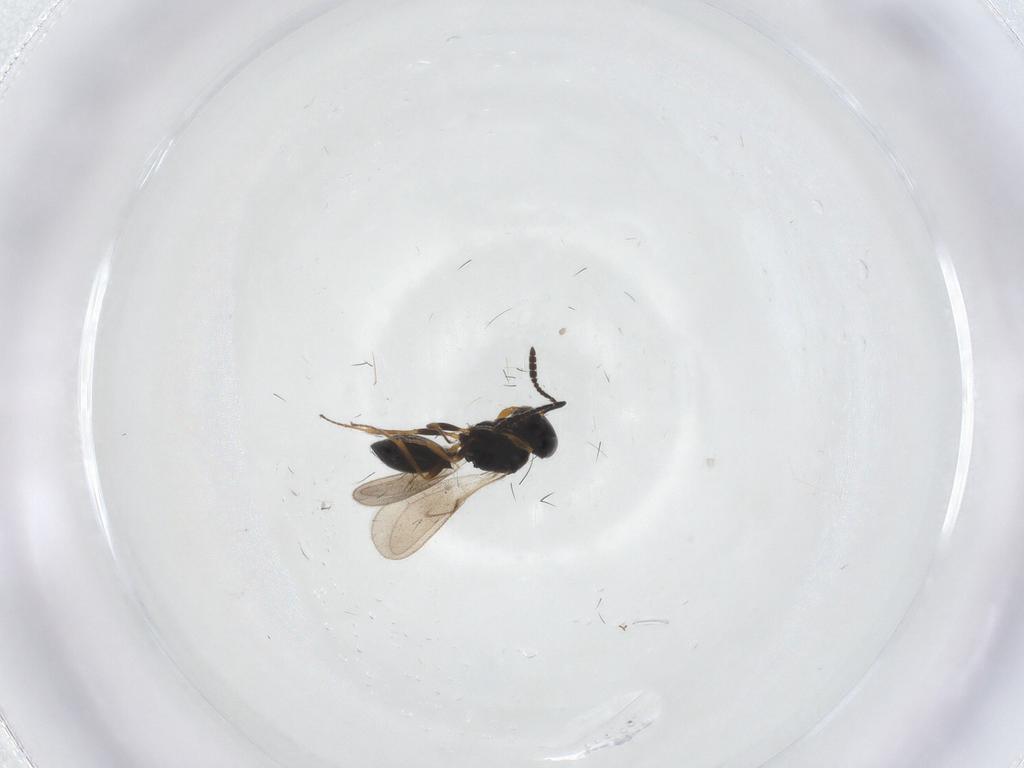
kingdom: Animalia
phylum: Arthropoda
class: Insecta
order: Hymenoptera
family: Scelionidae
